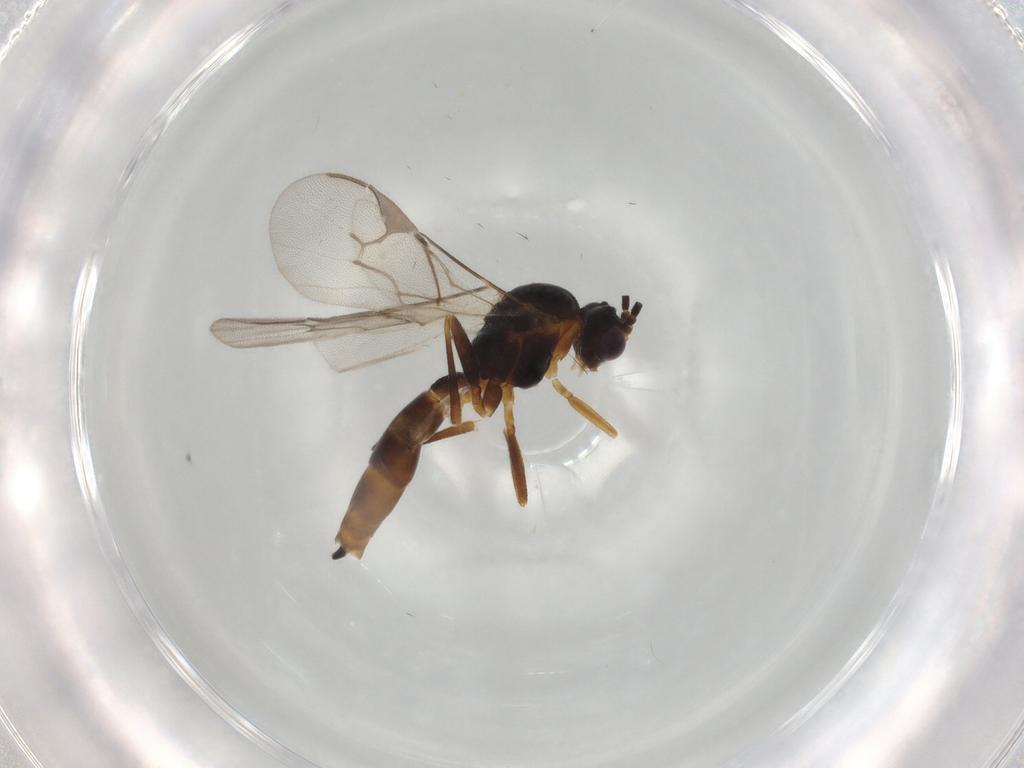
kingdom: Animalia
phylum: Arthropoda
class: Insecta
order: Hymenoptera
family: Braconidae
